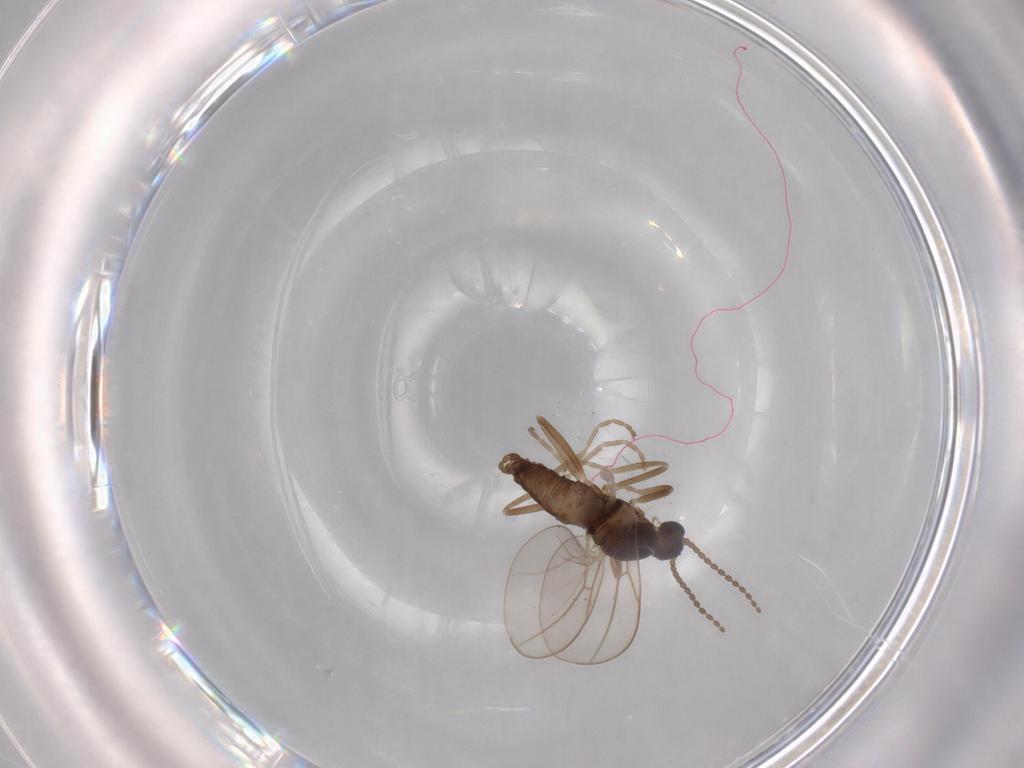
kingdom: Animalia
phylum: Arthropoda
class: Insecta
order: Diptera
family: Cecidomyiidae
